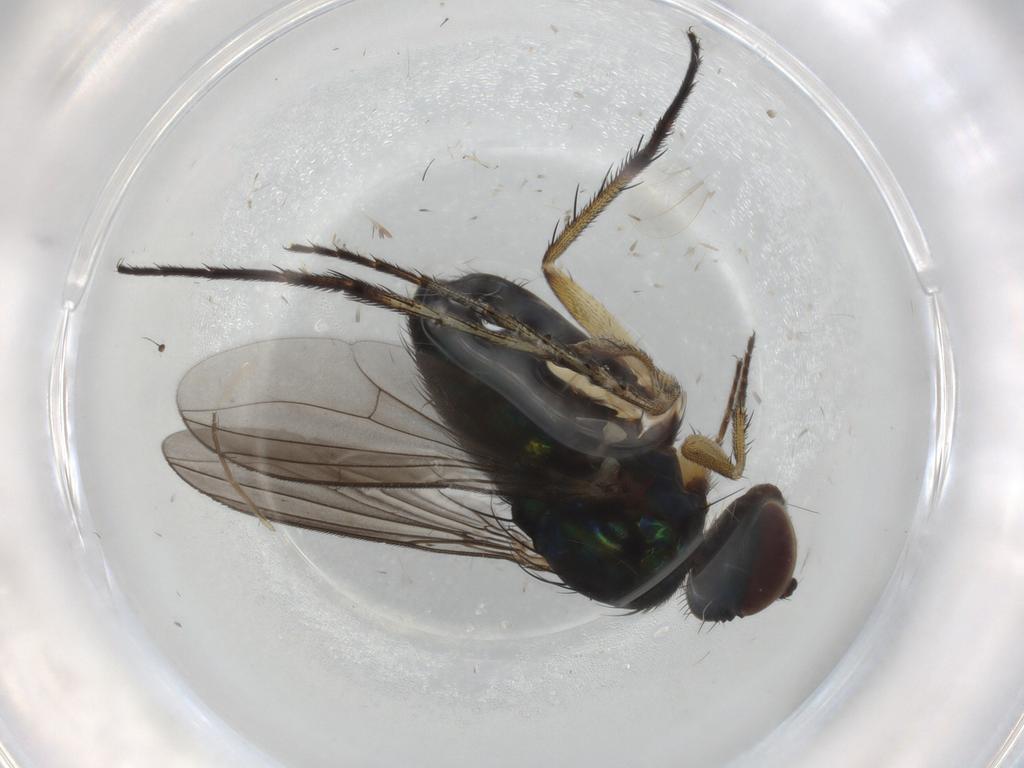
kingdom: Animalia
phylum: Arthropoda
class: Insecta
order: Diptera
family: Dolichopodidae
